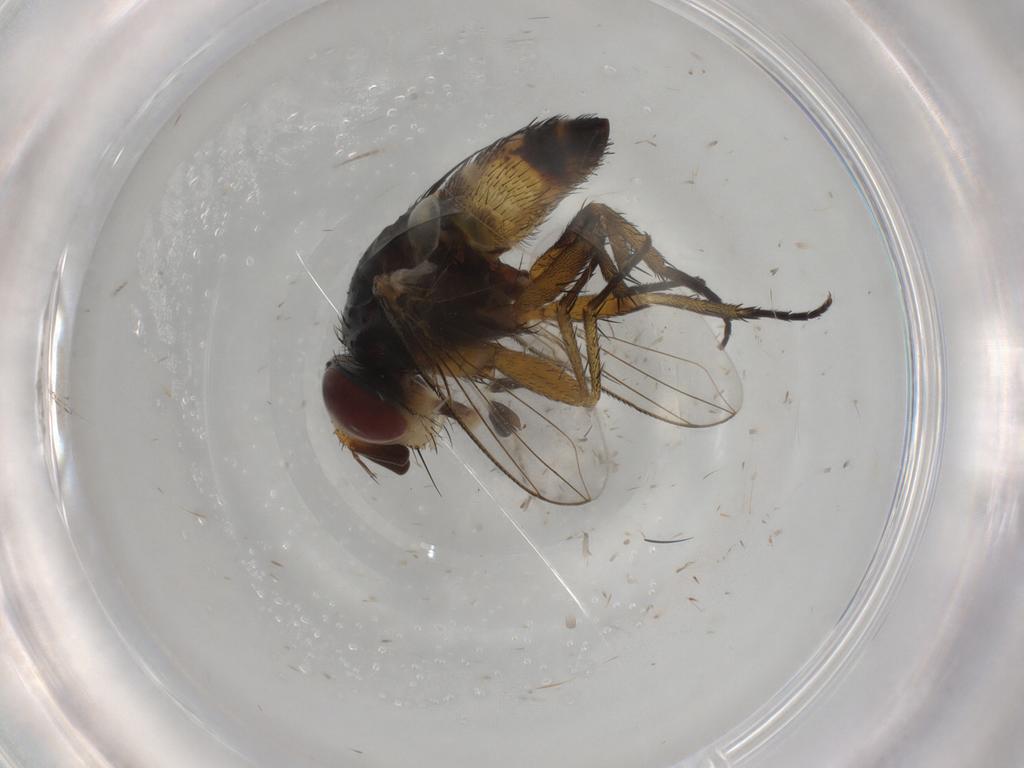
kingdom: Animalia
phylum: Arthropoda
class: Insecta
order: Diptera
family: Milichiidae
